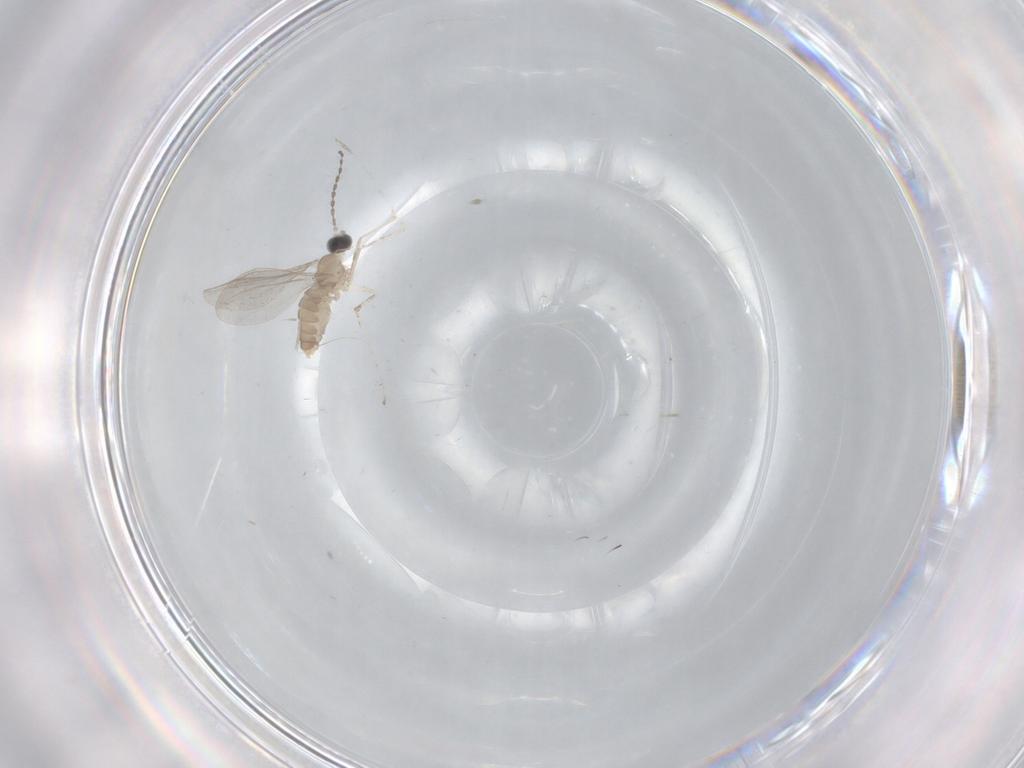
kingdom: Animalia
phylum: Arthropoda
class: Insecta
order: Diptera
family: Cecidomyiidae
